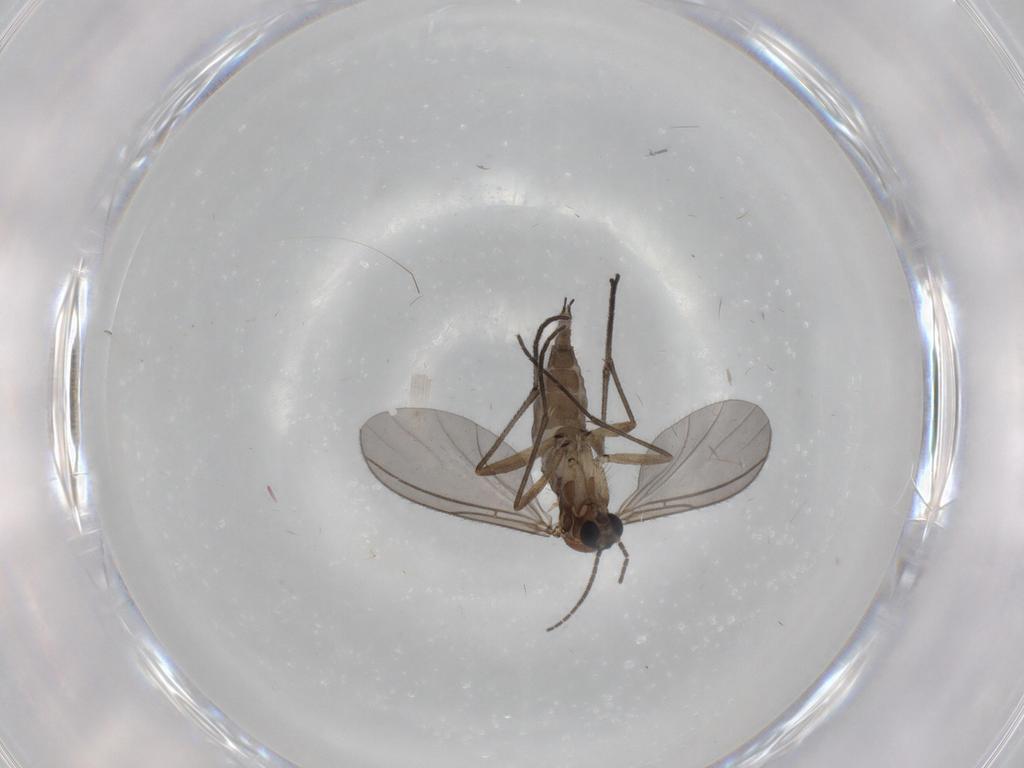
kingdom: Animalia
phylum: Arthropoda
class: Insecta
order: Diptera
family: Sciaridae
